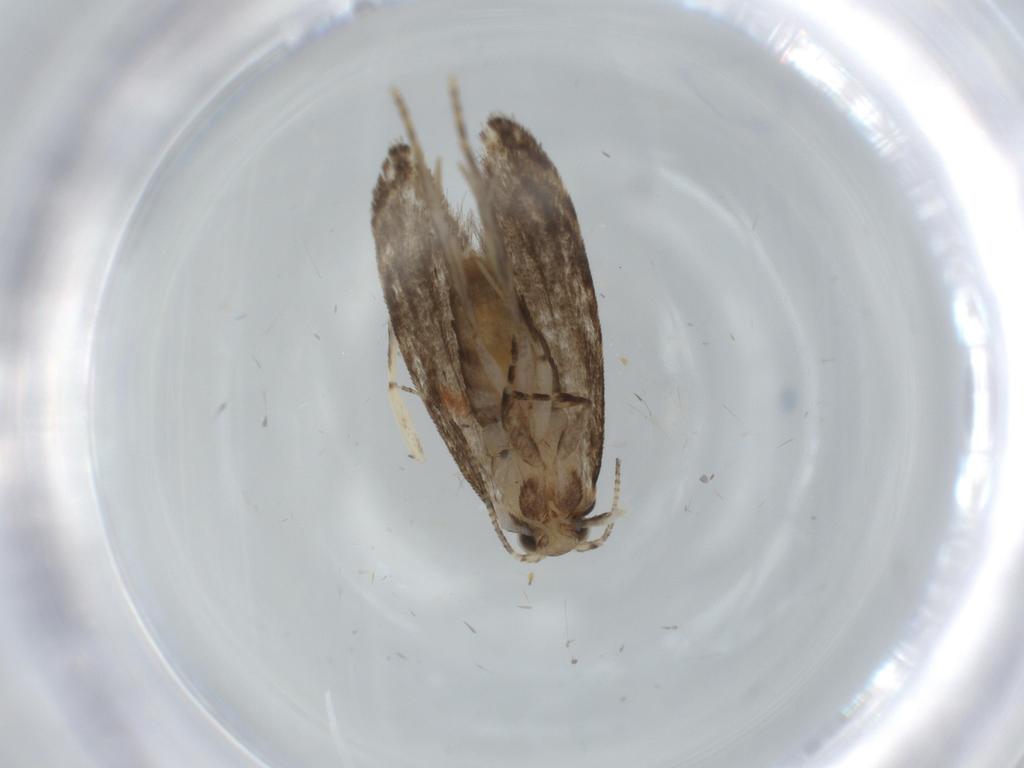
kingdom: Animalia
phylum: Arthropoda
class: Insecta
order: Lepidoptera
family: Tineidae
